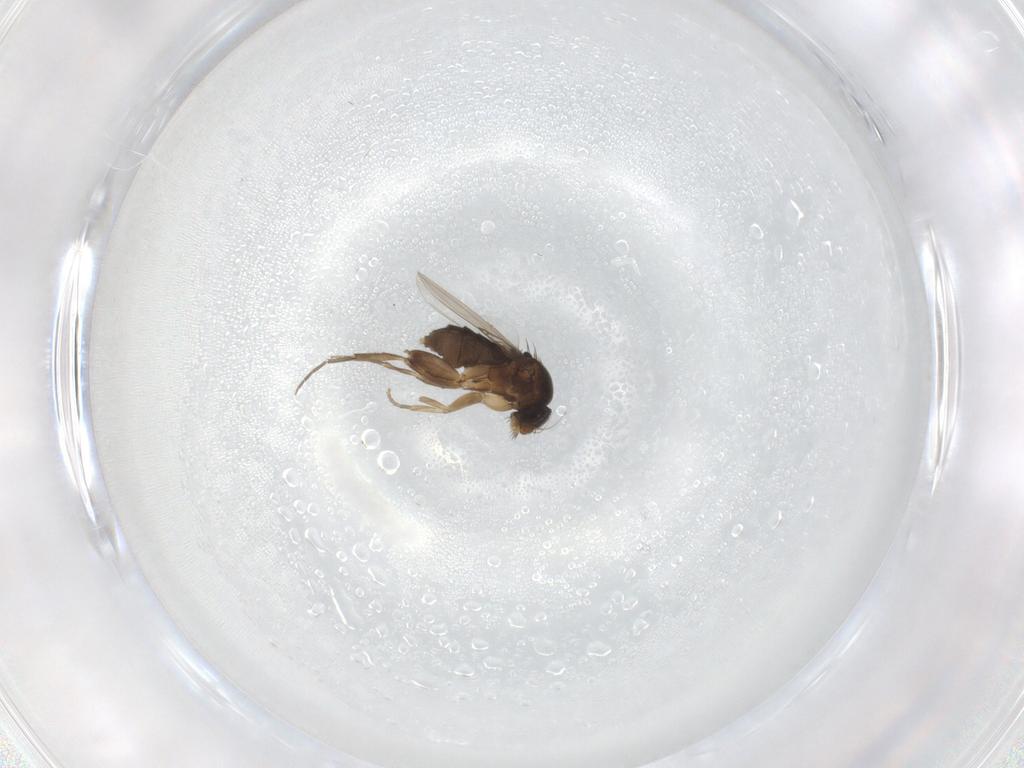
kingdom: Animalia
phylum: Arthropoda
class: Insecta
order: Diptera
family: Phoridae
